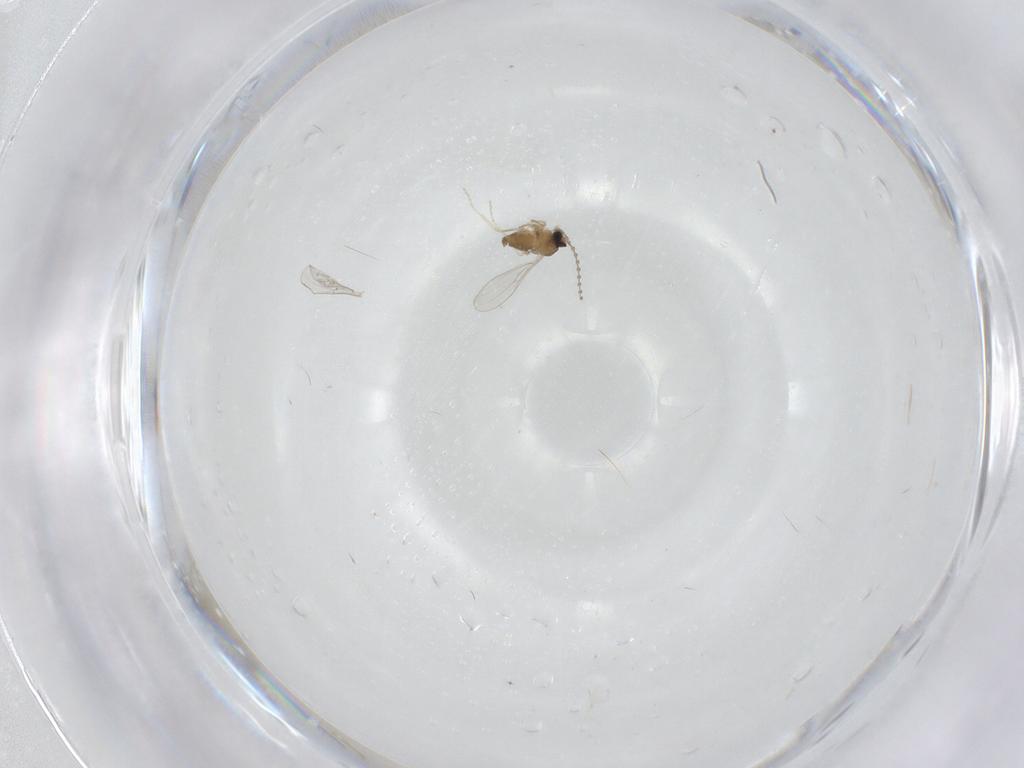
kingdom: Animalia
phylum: Arthropoda
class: Insecta
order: Diptera
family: Cecidomyiidae
